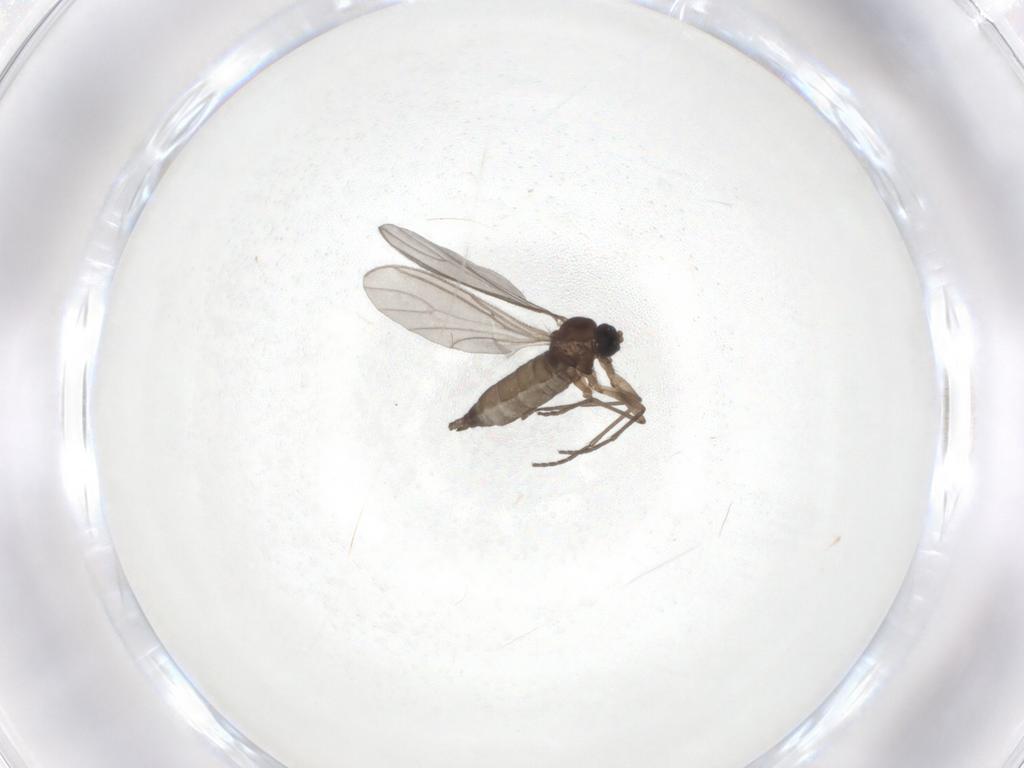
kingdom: Animalia
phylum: Arthropoda
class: Insecta
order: Diptera
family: Sciaridae
